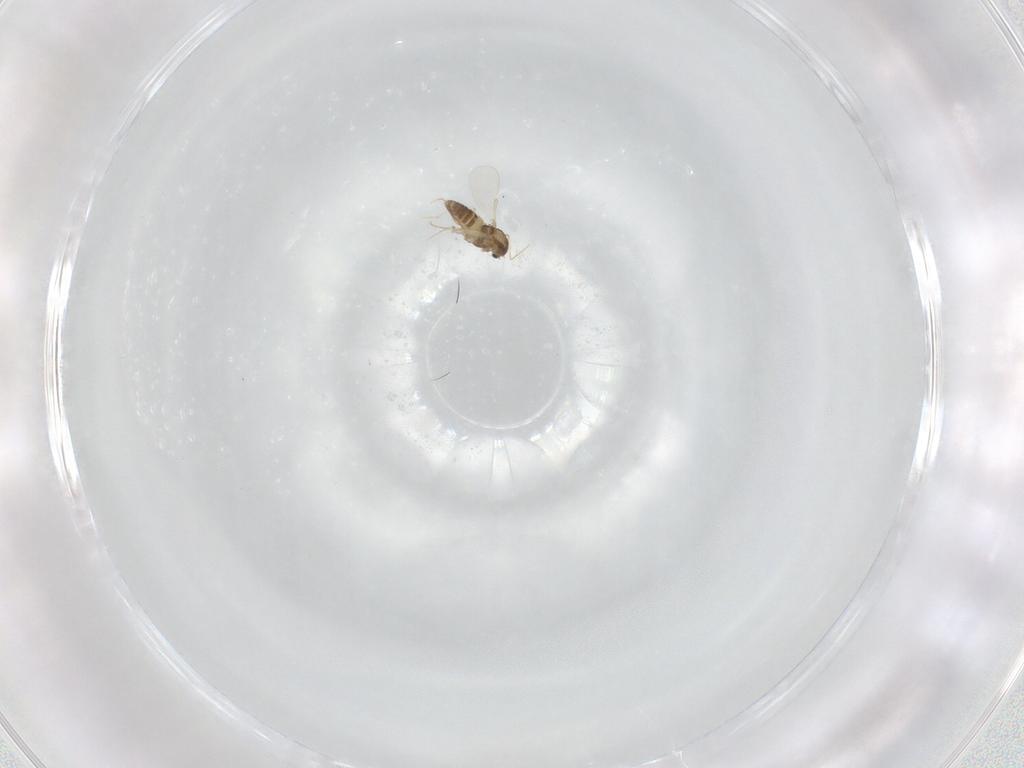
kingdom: Animalia
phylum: Arthropoda
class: Insecta
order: Diptera
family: Chironomidae
